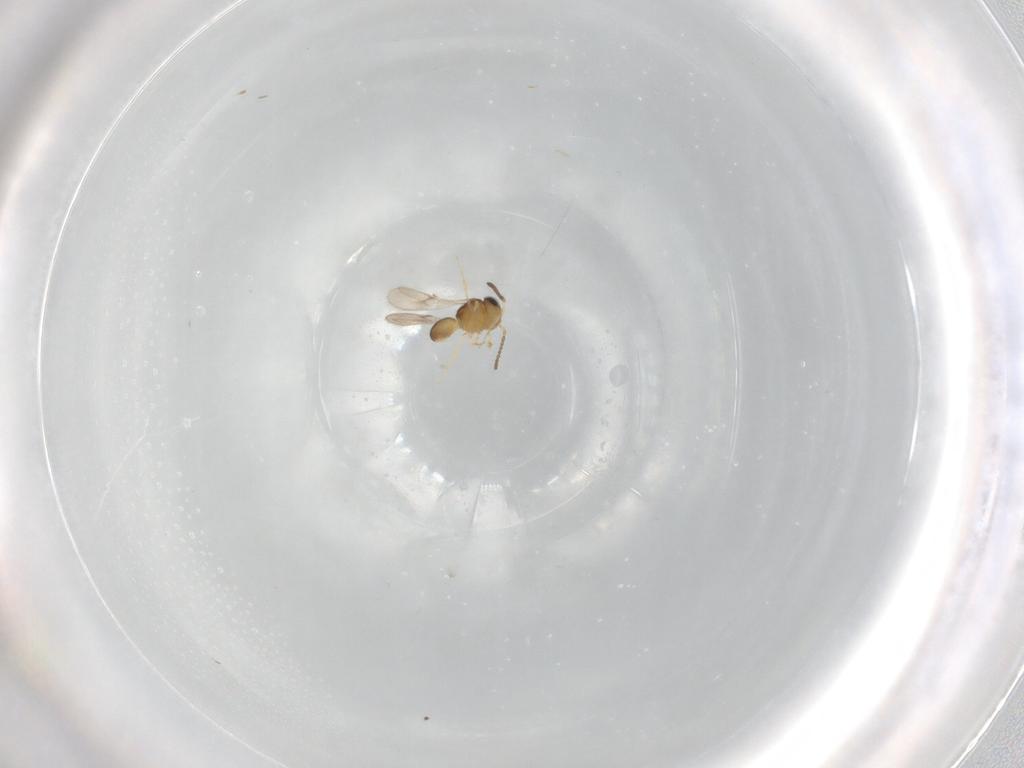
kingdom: Animalia
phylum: Arthropoda
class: Insecta
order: Hymenoptera
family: Scelionidae
